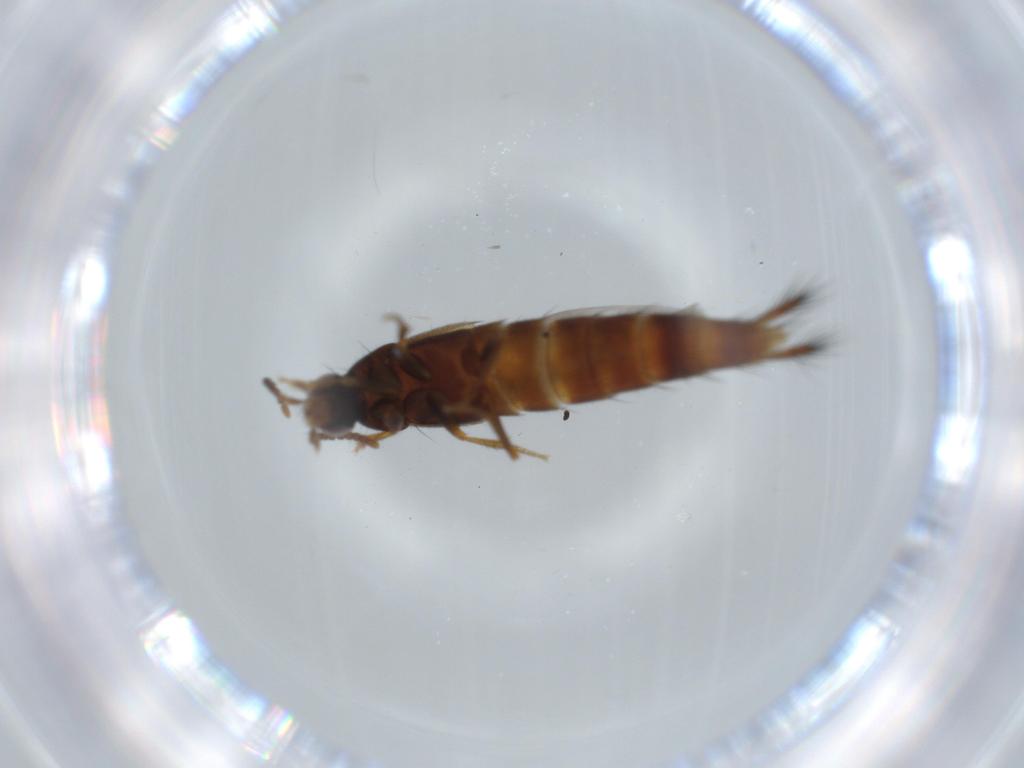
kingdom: Animalia
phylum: Arthropoda
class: Insecta
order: Coleoptera
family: Staphylinidae
